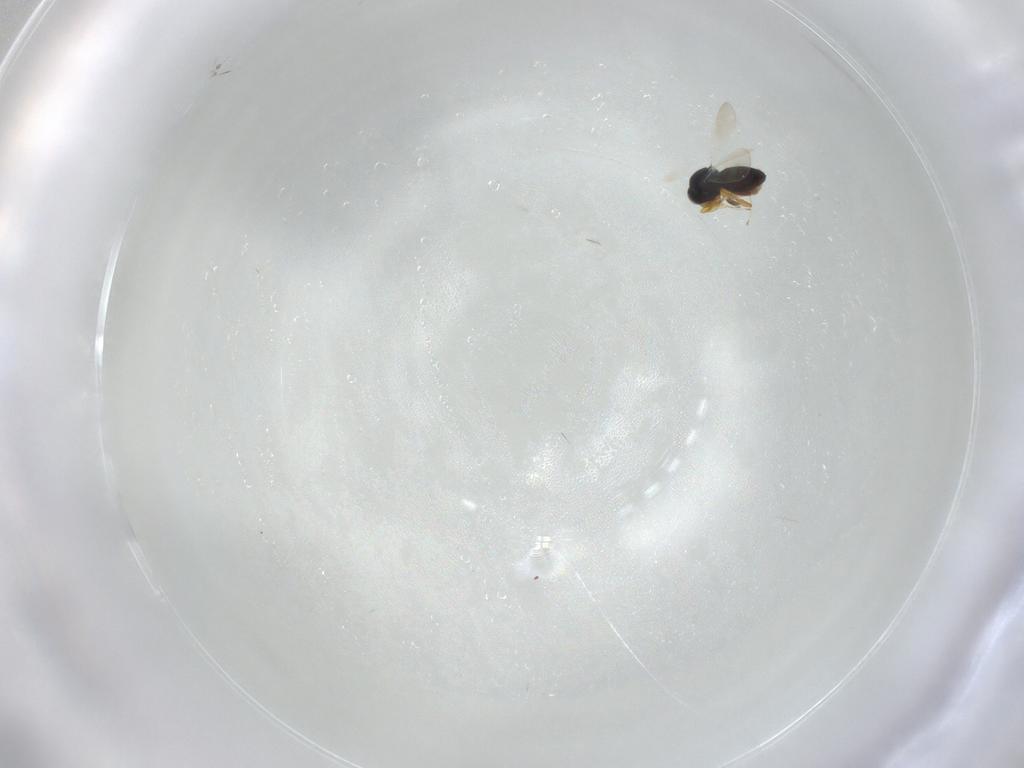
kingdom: Animalia
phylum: Arthropoda
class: Insecta
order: Hymenoptera
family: Platygastridae
